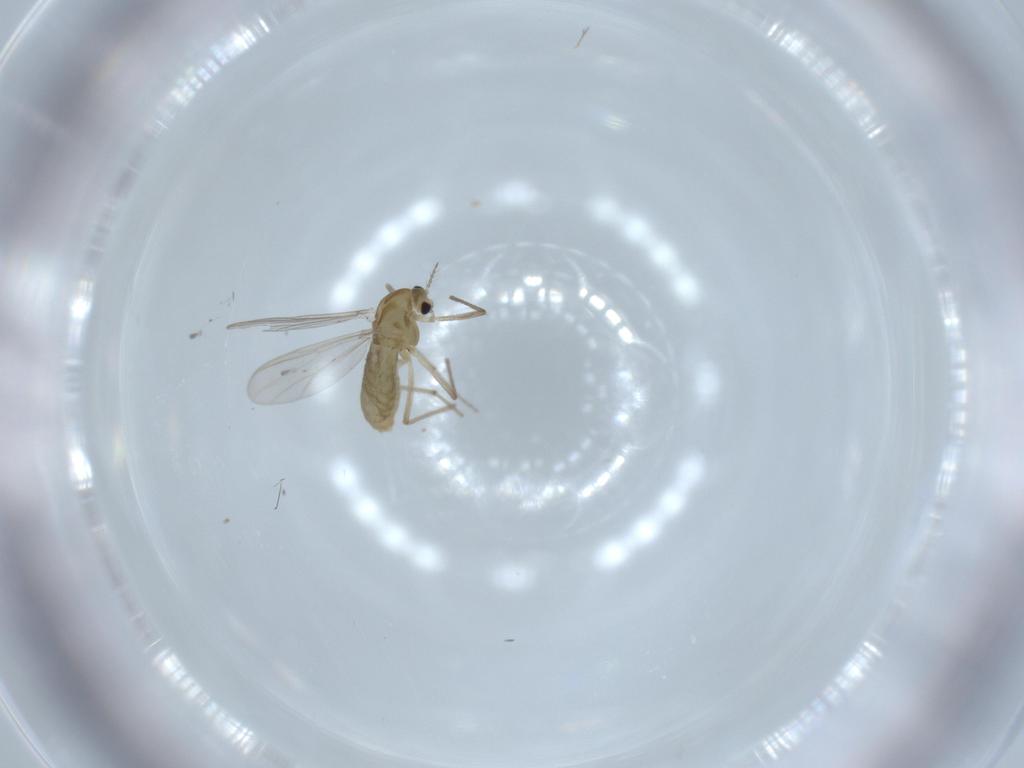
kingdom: Animalia
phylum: Arthropoda
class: Insecta
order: Diptera
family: Chironomidae
